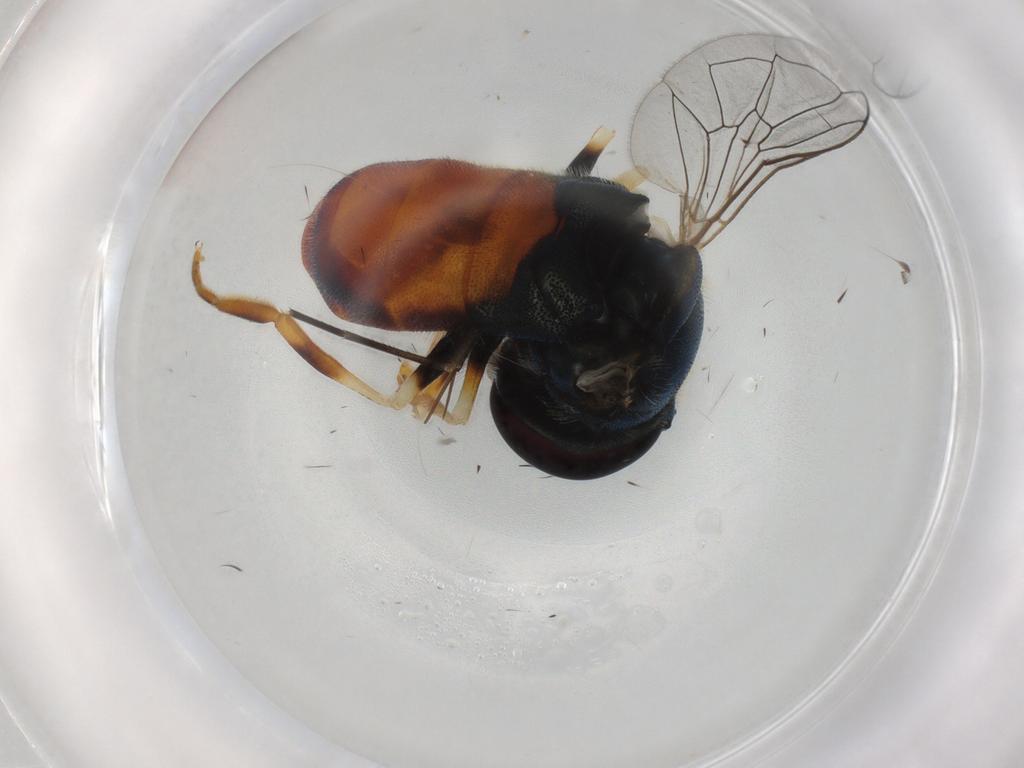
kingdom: Animalia
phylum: Arthropoda
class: Insecta
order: Diptera
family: Syrphidae
